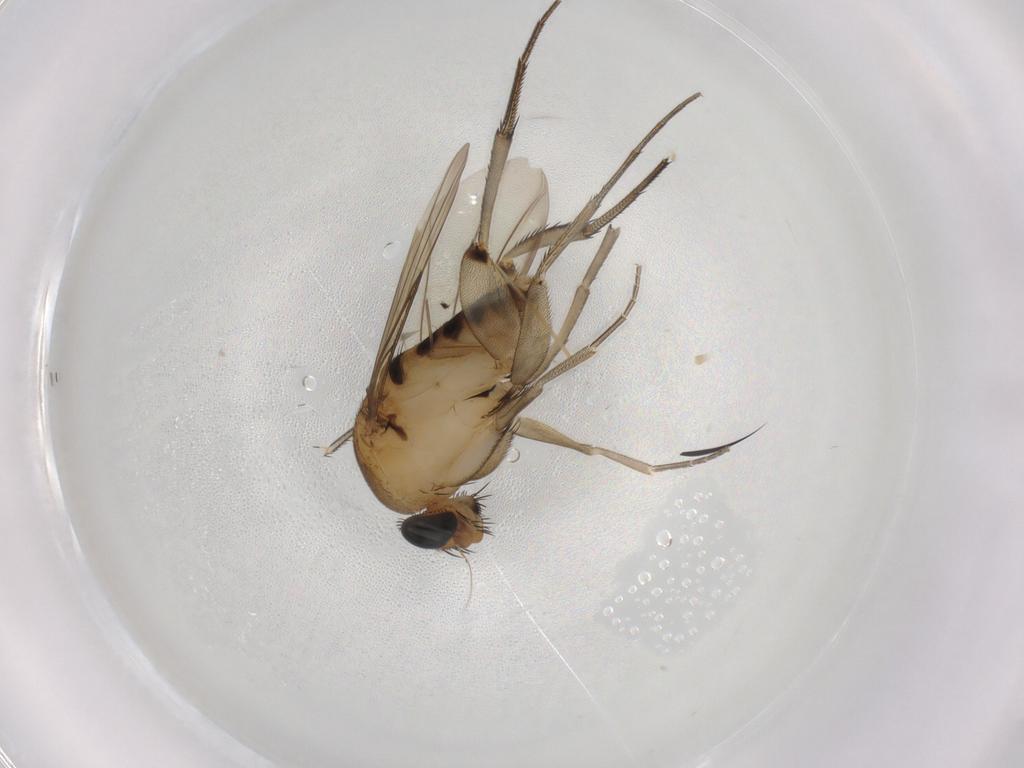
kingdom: Animalia
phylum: Arthropoda
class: Insecta
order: Diptera
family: Phoridae
